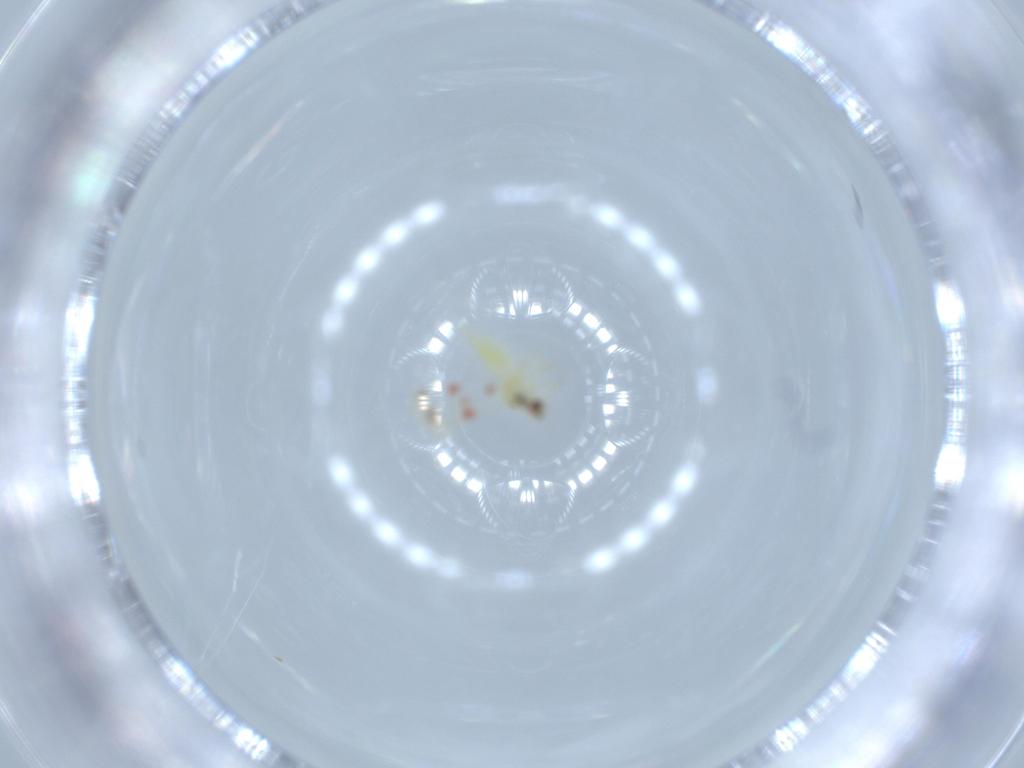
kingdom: Animalia
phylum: Arthropoda
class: Insecta
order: Hemiptera
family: Aleyrodidae
